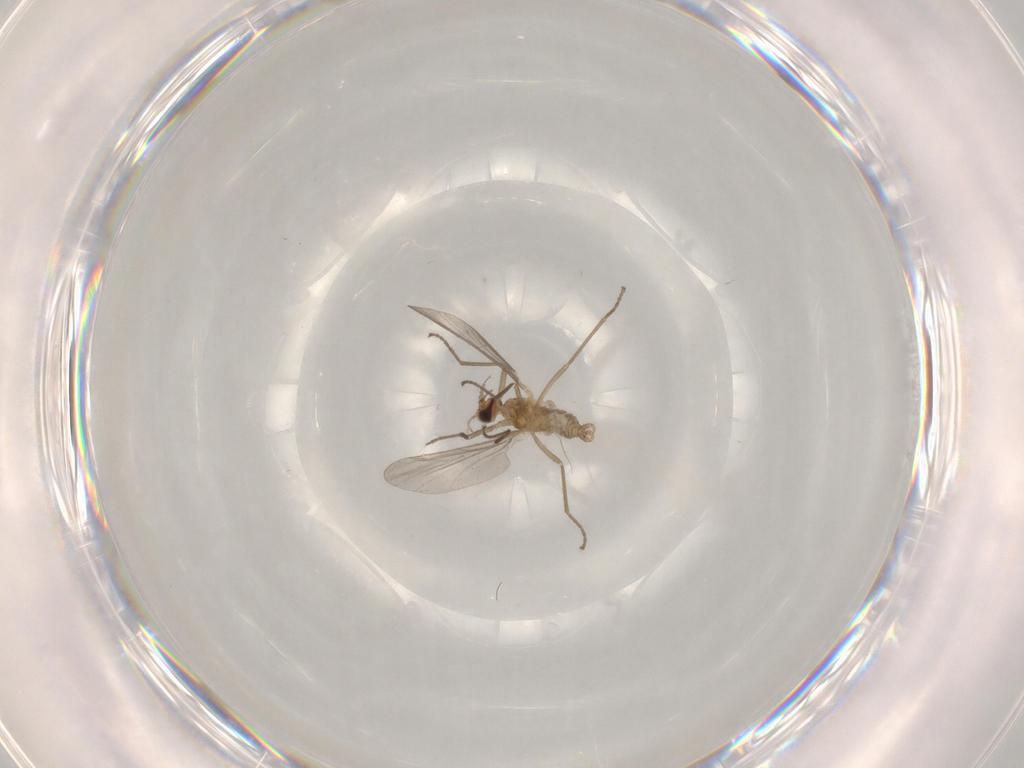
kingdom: Animalia
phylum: Arthropoda
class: Insecta
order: Diptera
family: Cecidomyiidae
